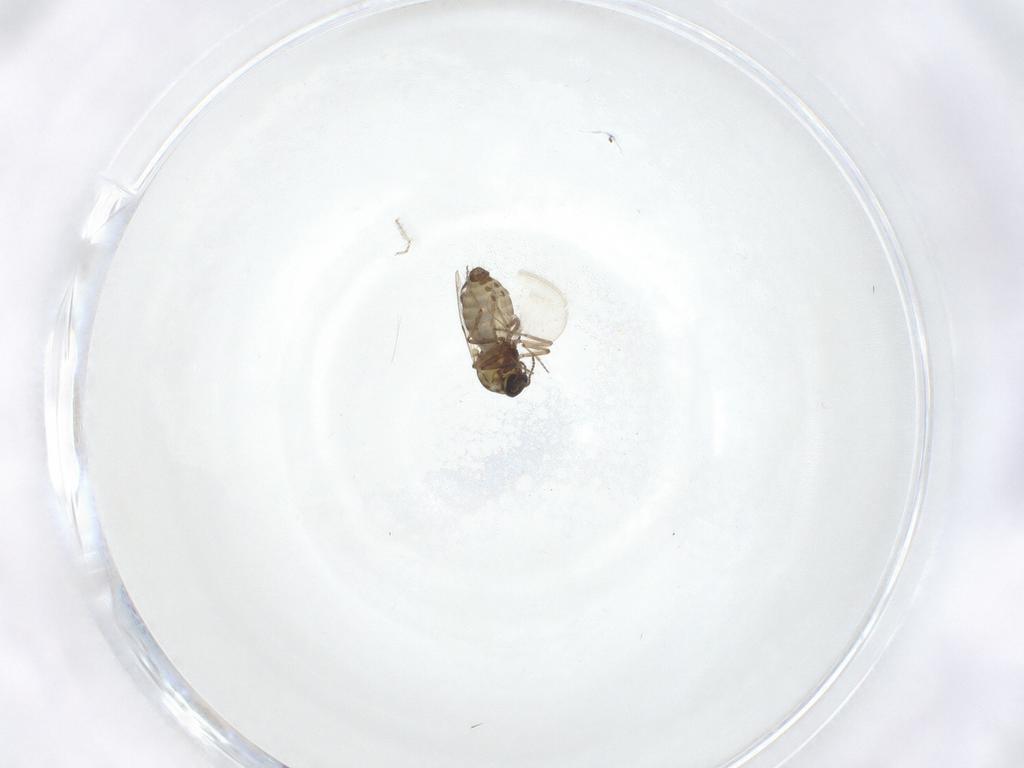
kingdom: Animalia
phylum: Arthropoda
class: Insecta
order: Diptera
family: Ceratopogonidae
